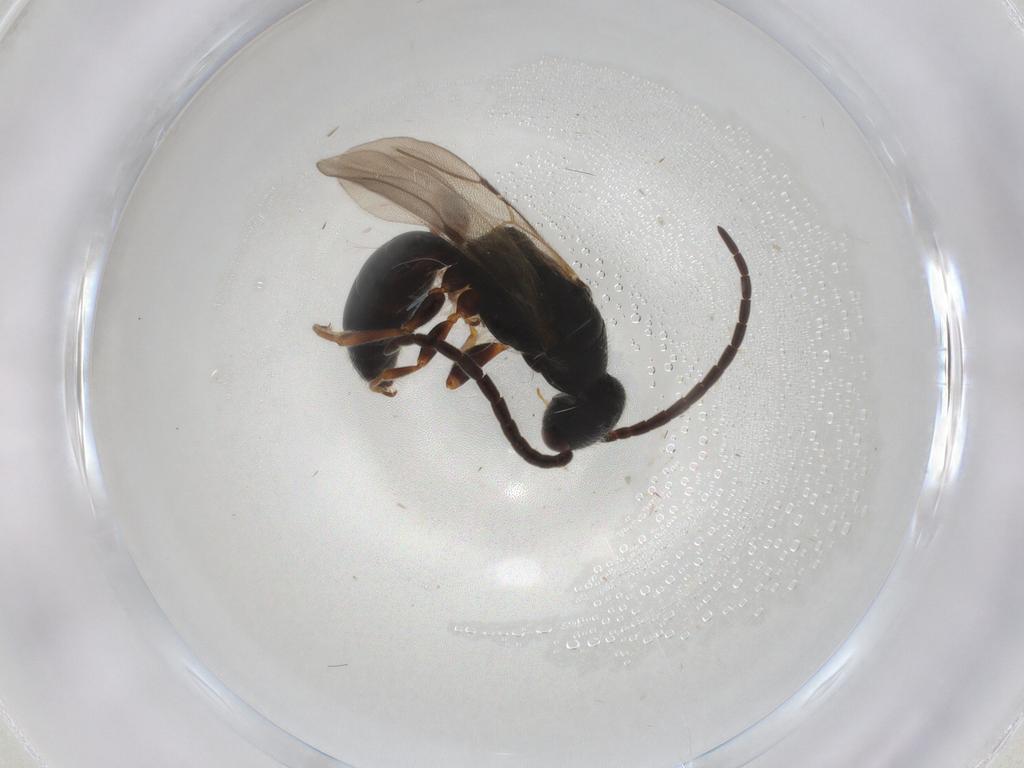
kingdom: Animalia
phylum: Arthropoda
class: Insecta
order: Hymenoptera
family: Bethylidae
